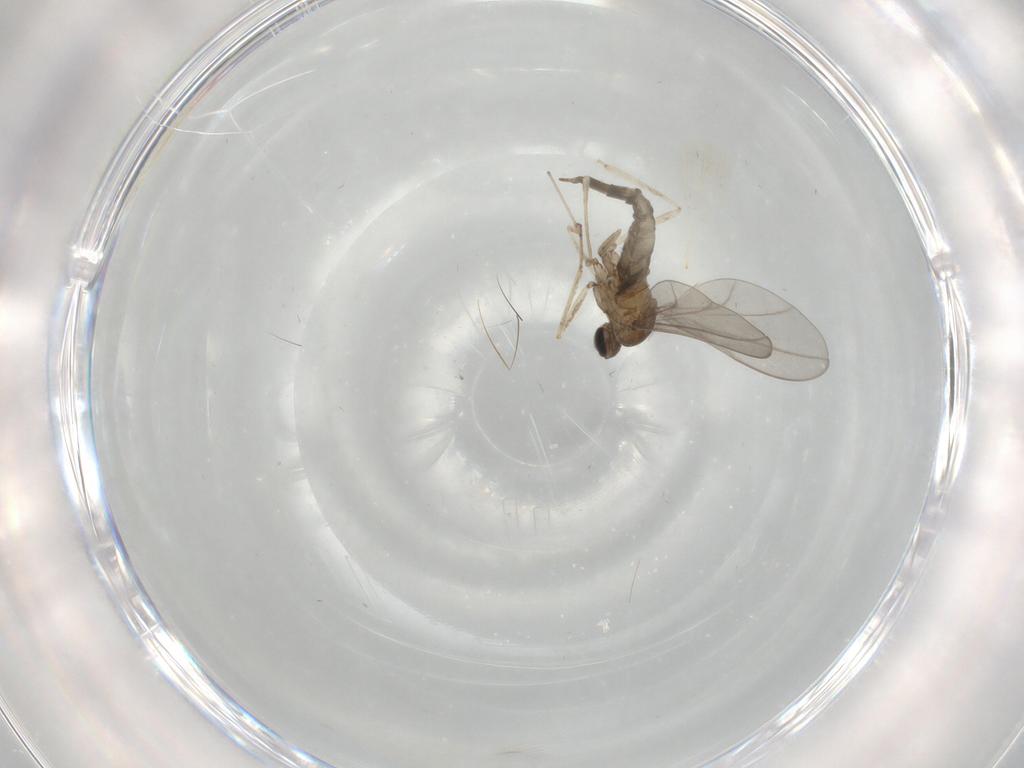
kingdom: Animalia
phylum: Arthropoda
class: Insecta
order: Diptera
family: Cecidomyiidae
